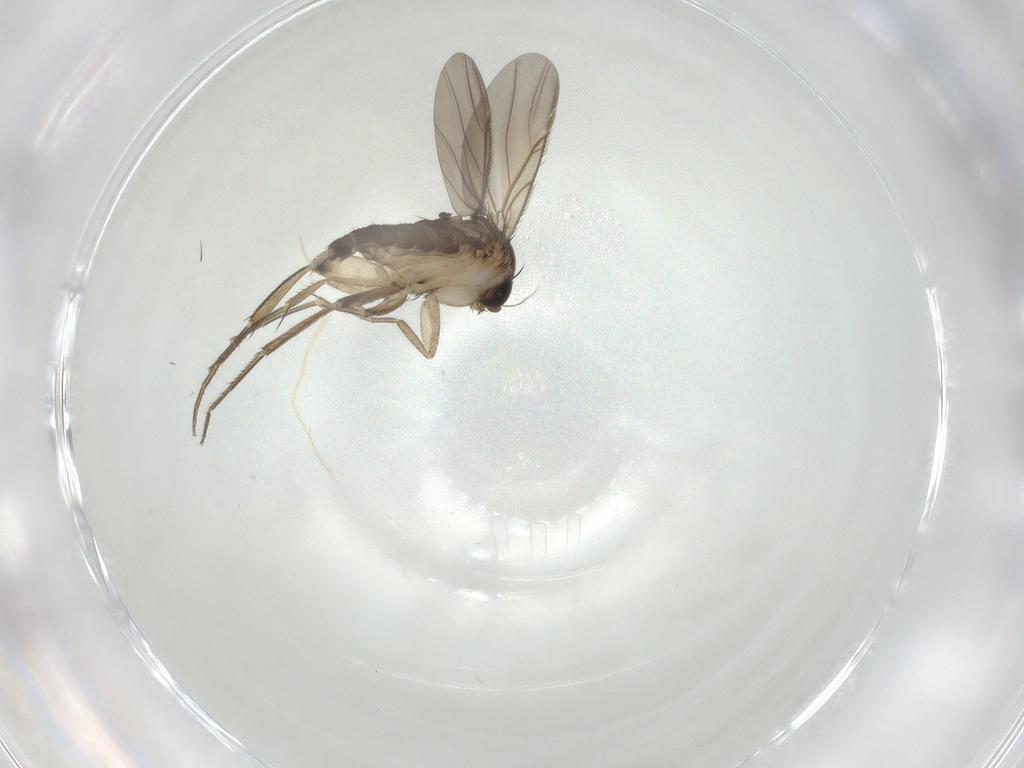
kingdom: Animalia
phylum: Arthropoda
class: Insecta
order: Diptera
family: Phoridae
